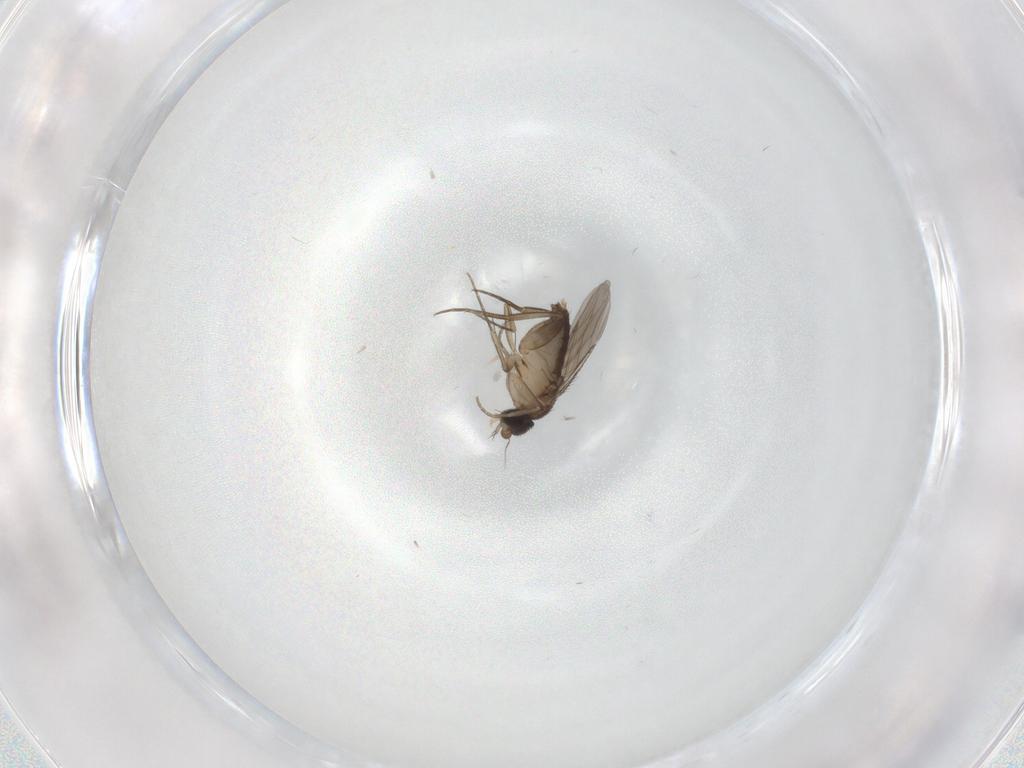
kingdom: Animalia
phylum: Arthropoda
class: Insecta
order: Diptera
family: Phoridae
